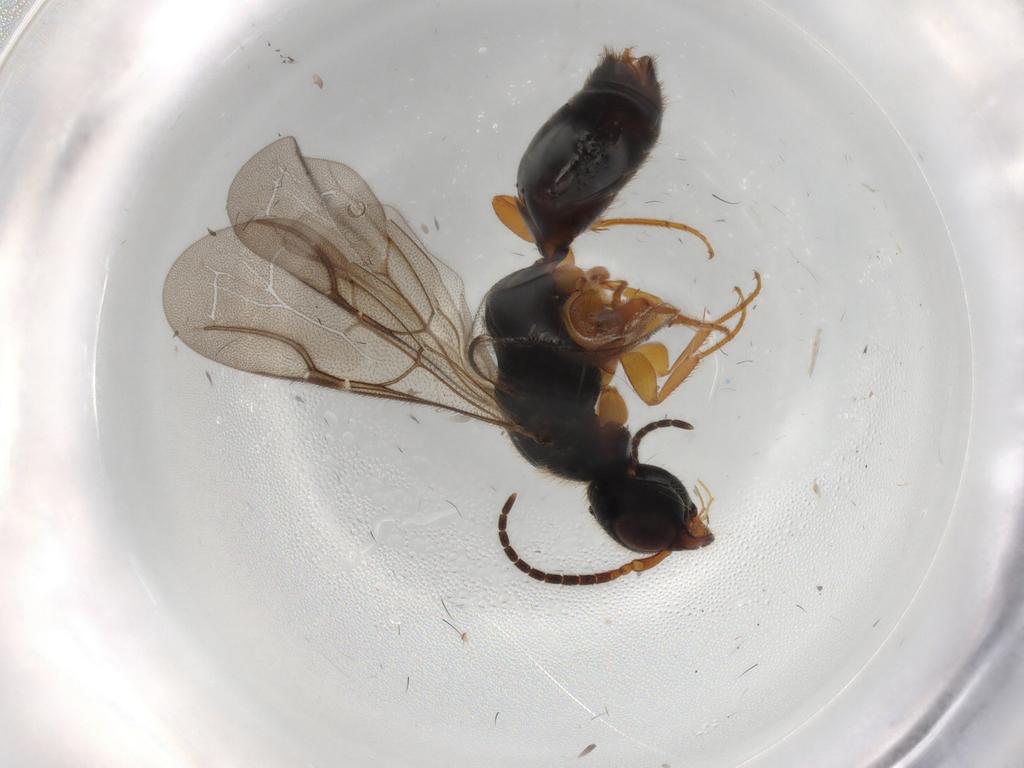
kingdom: Animalia
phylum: Arthropoda
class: Insecta
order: Hymenoptera
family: Bethylidae
